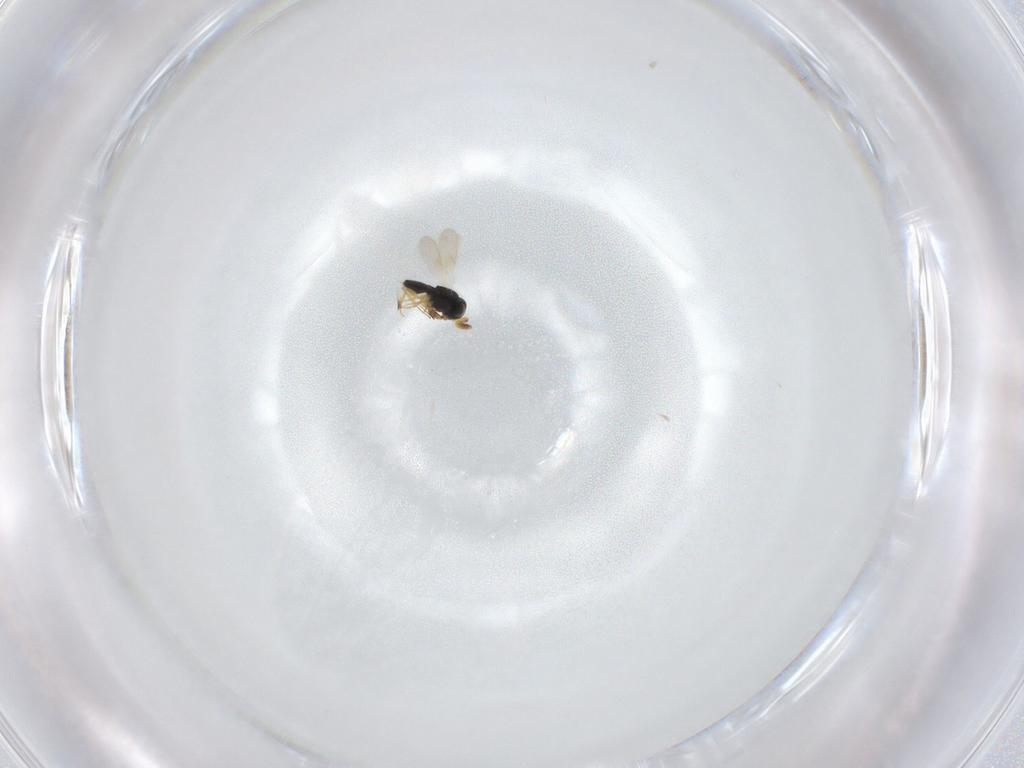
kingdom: Animalia
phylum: Arthropoda
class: Insecta
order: Hymenoptera
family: Scelionidae
